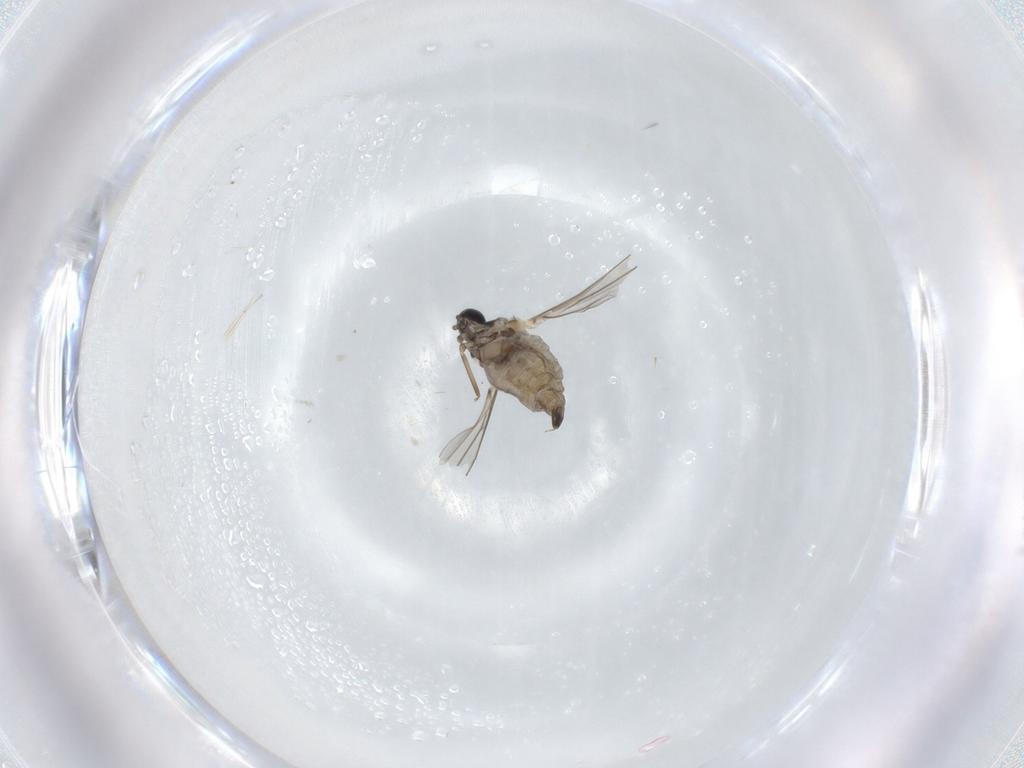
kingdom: Animalia
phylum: Arthropoda
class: Insecta
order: Diptera
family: Cecidomyiidae
